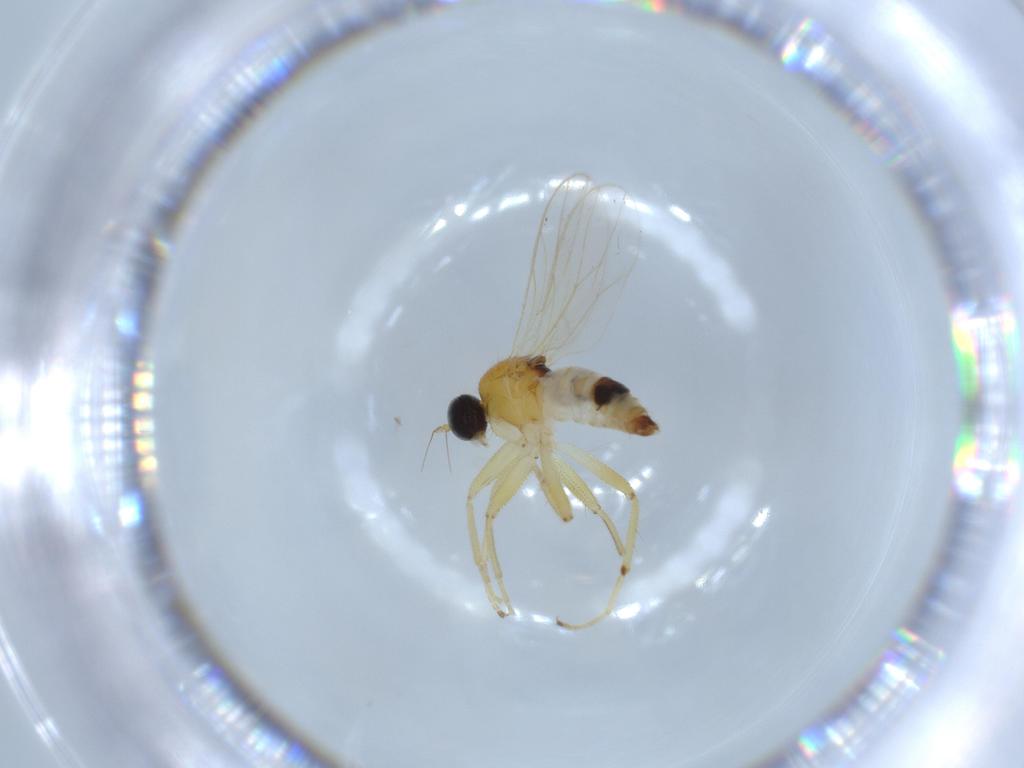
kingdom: Animalia
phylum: Arthropoda
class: Insecta
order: Diptera
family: Hybotidae
